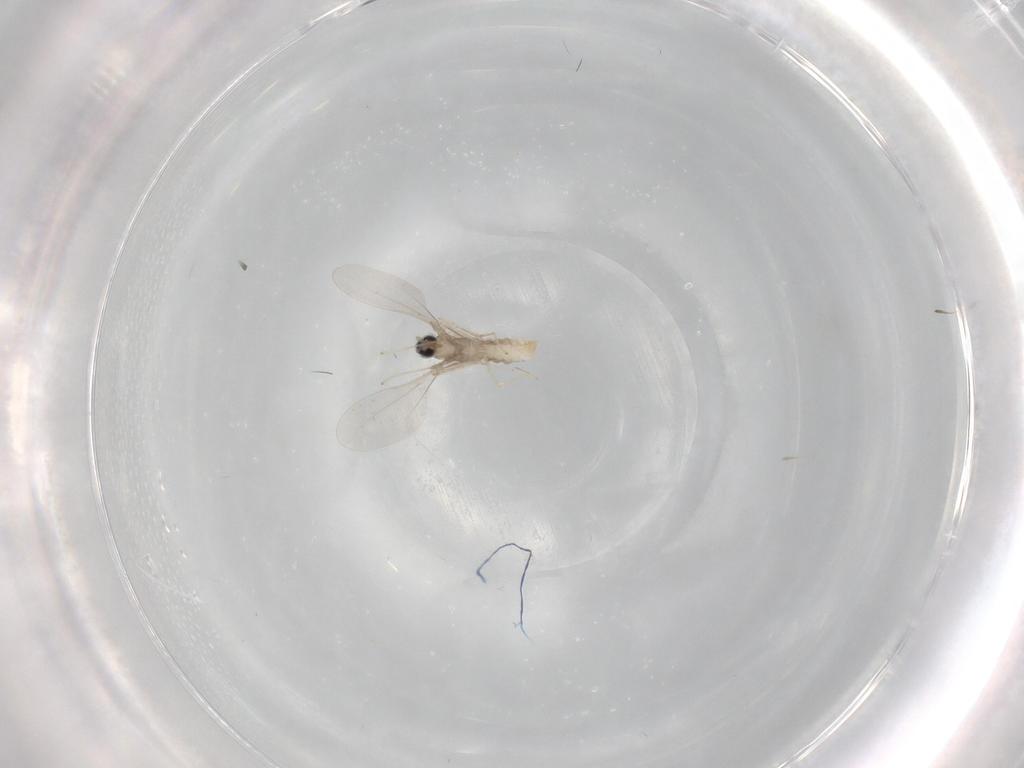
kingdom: Animalia
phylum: Arthropoda
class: Insecta
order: Diptera
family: Cecidomyiidae
